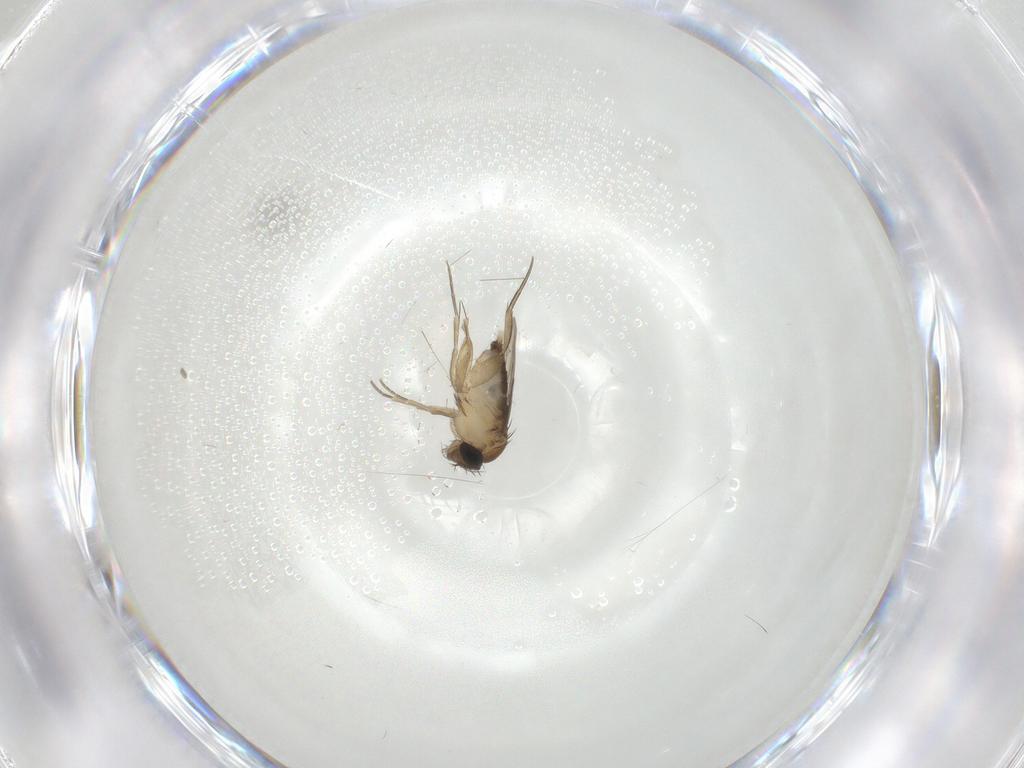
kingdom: Animalia
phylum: Arthropoda
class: Insecta
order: Diptera
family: Phoridae
